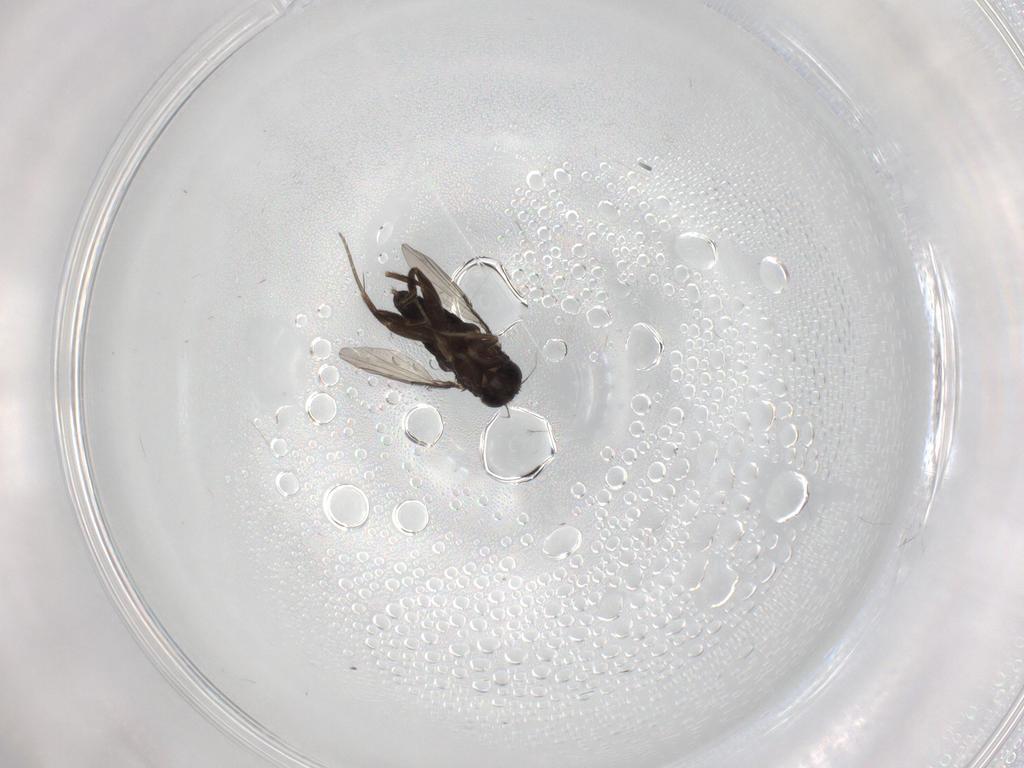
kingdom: Animalia
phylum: Arthropoda
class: Insecta
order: Diptera
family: Phoridae
